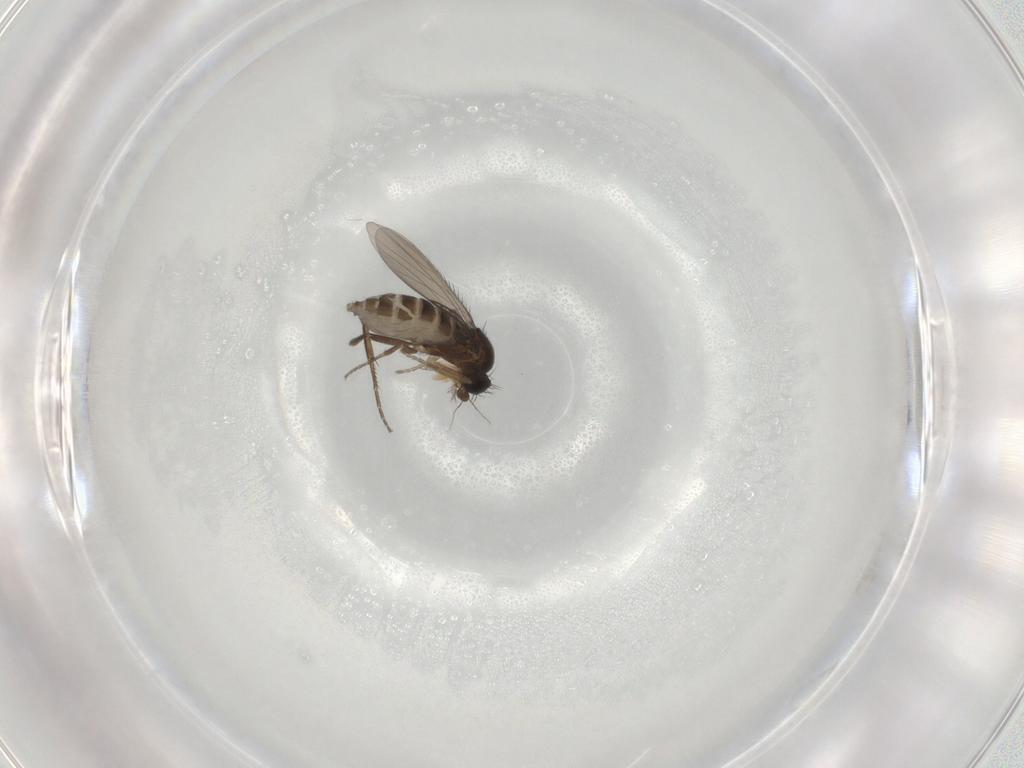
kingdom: Animalia
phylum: Arthropoda
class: Insecta
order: Diptera
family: Phoridae
